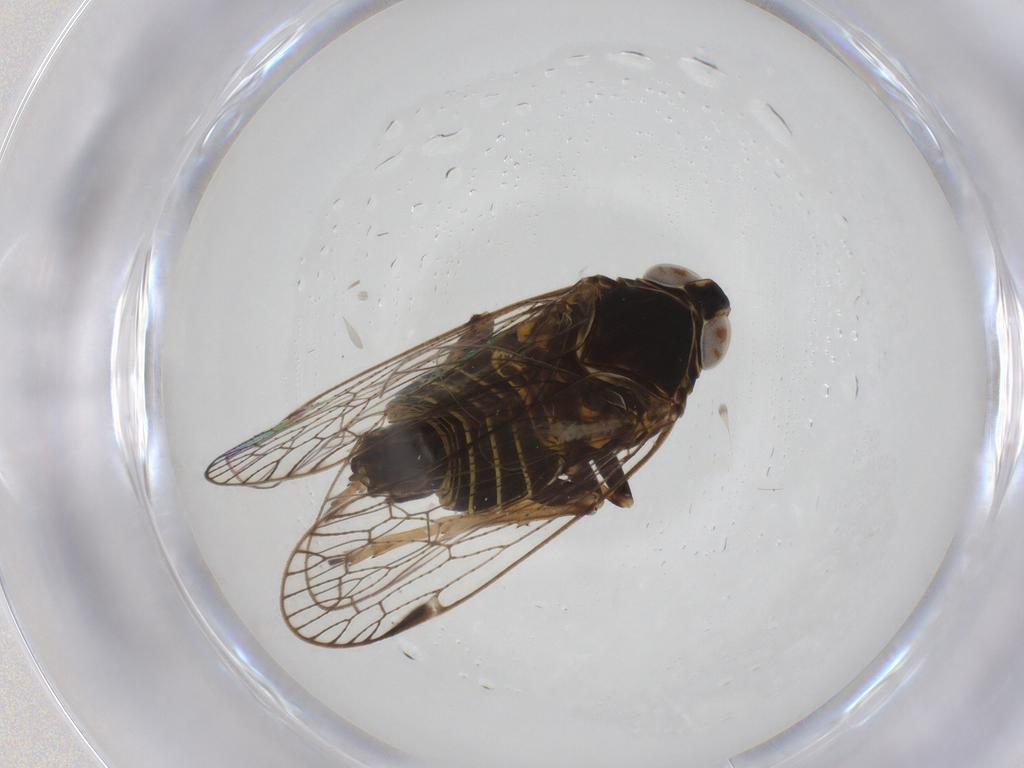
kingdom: Animalia
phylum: Arthropoda
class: Insecta
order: Hemiptera
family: Cixiidae
